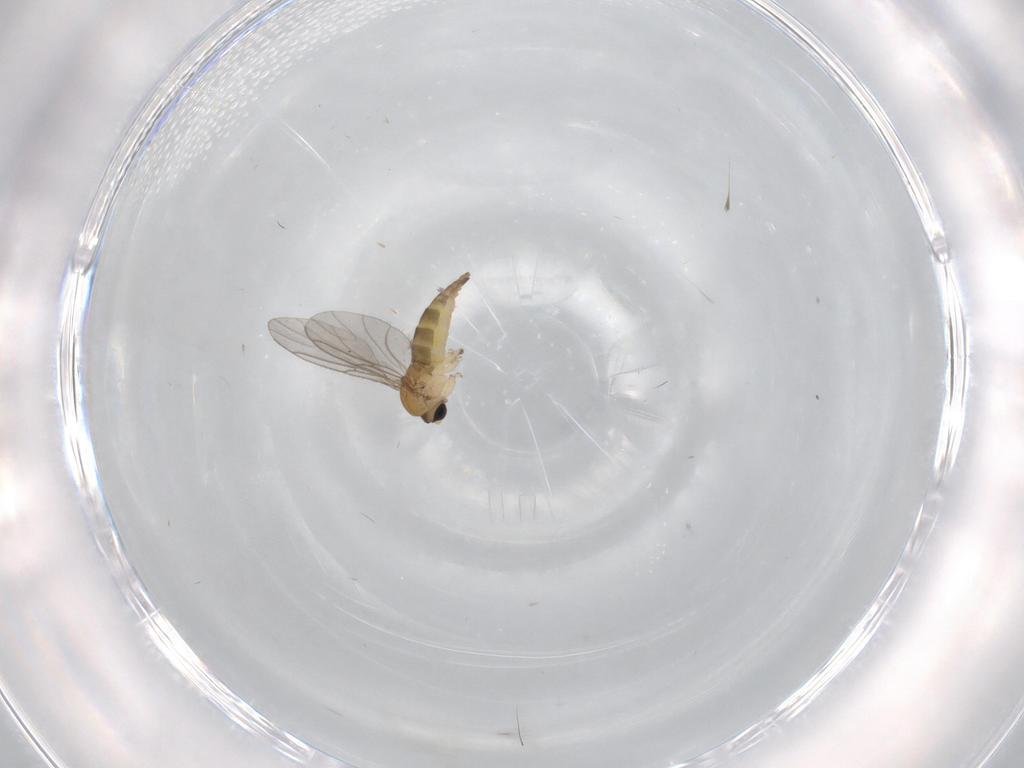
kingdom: Animalia
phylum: Arthropoda
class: Insecta
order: Diptera
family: Sciaridae
